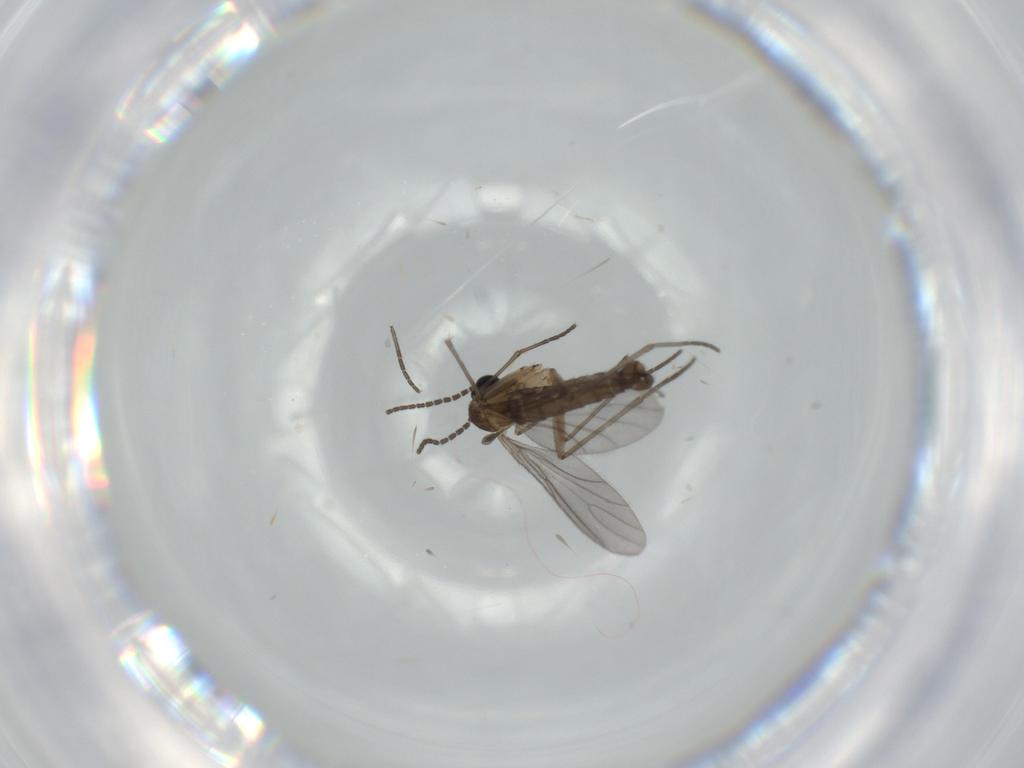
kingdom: Animalia
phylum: Arthropoda
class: Insecta
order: Diptera
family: Sciaridae
